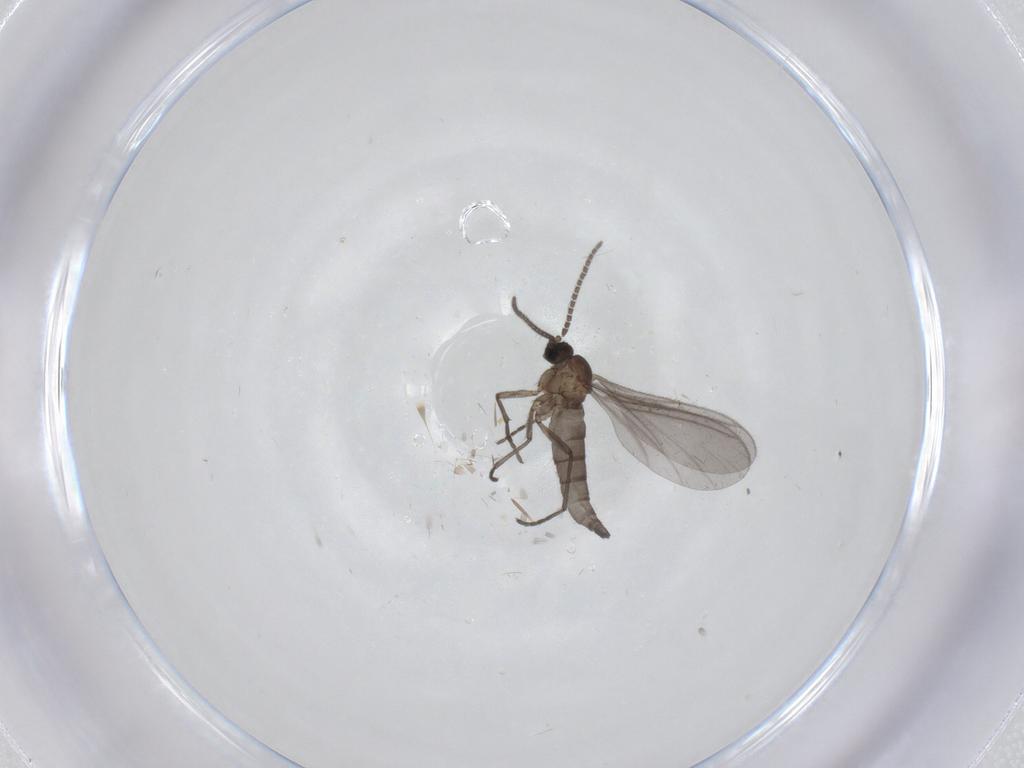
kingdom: Animalia
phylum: Arthropoda
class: Insecta
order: Diptera
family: Sciaridae
